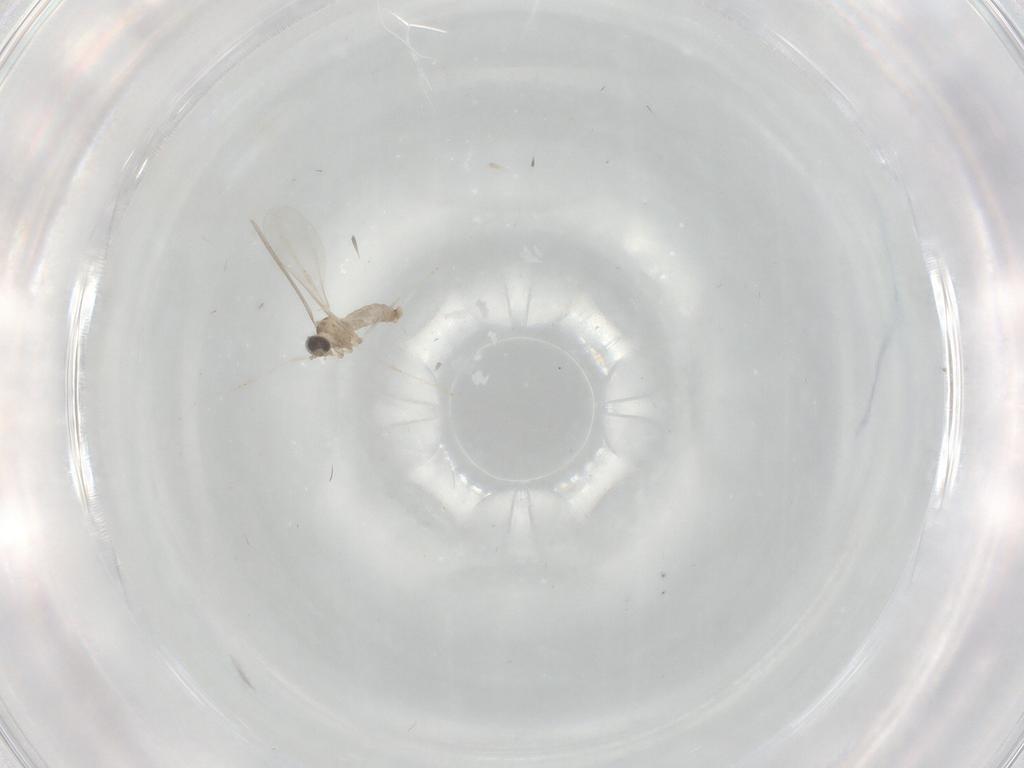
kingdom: Animalia
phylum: Arthropoda
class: Insecta
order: Diptera
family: Cecidomyiidae
